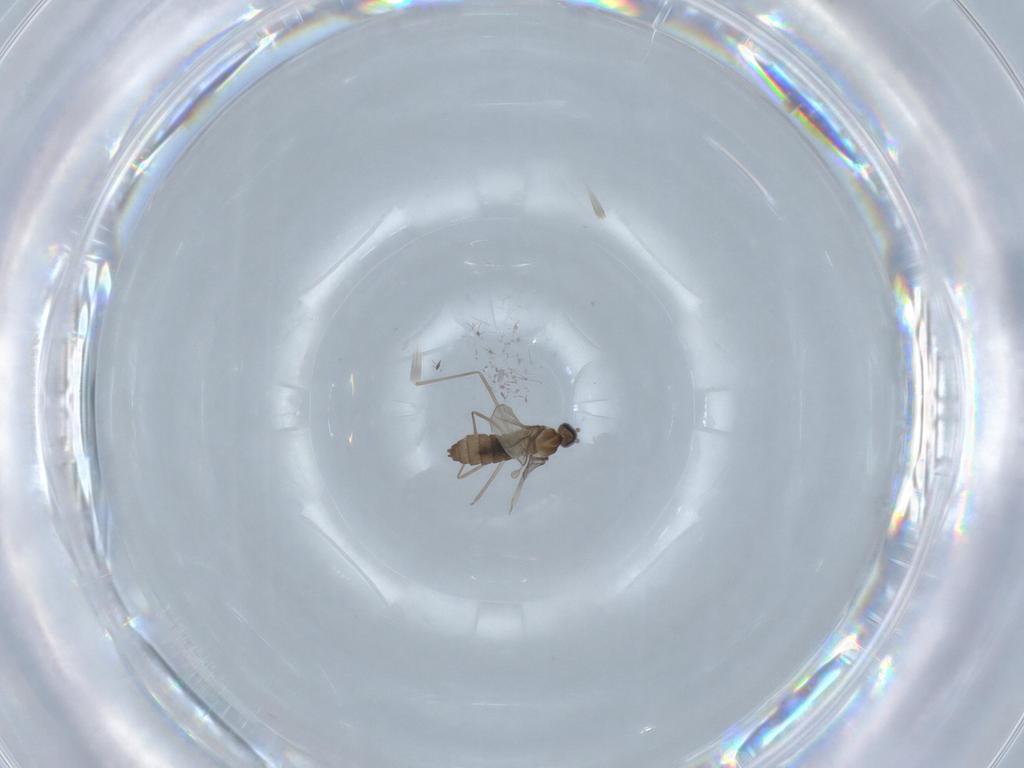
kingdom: Animalia
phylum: Arthropoda
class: Insecta
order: Diptera
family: Cecidomyiidae
